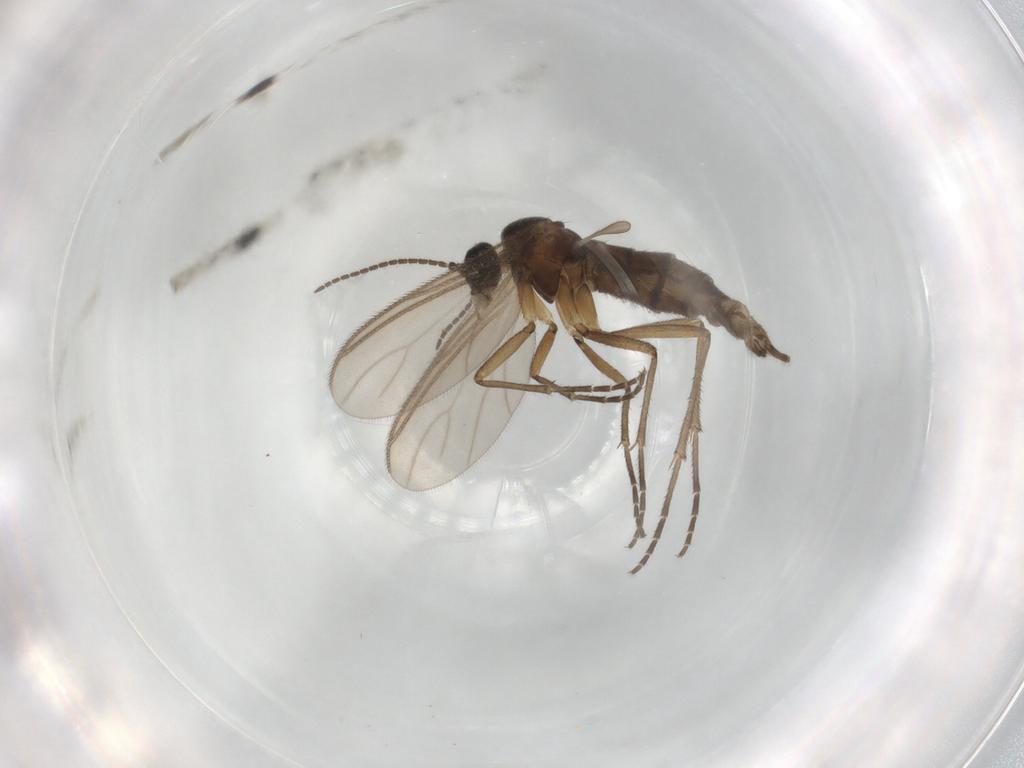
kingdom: Animalia
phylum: Arthropoda
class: Insecta
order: Diptera
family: Sciaridae
